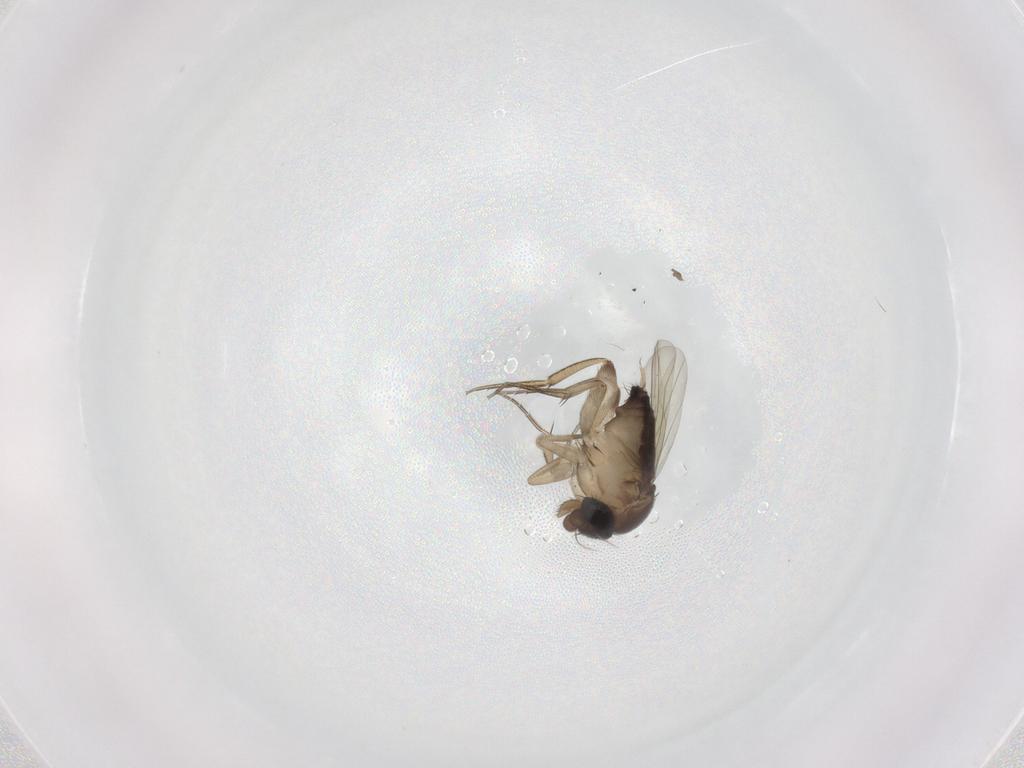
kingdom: Animalia
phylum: Arthropoda
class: Insecta
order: Diptera
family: Phoridae
